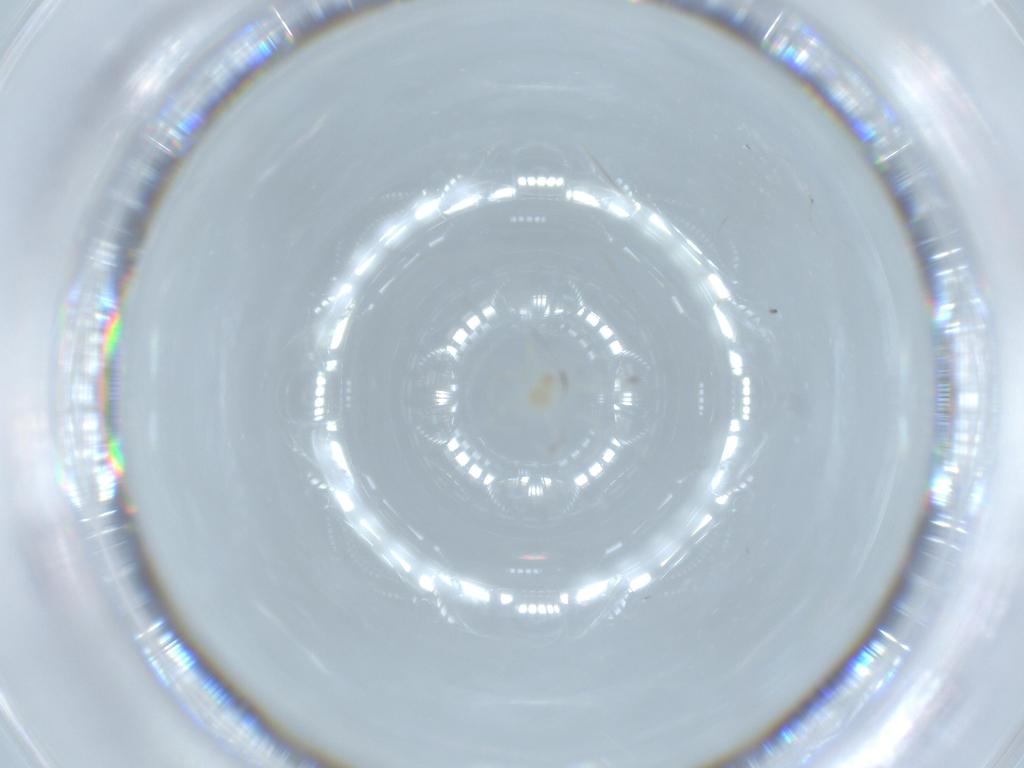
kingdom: Animalia
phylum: Arthropoda
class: Arachnida
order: Trombidiformes
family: Erythraeidae
